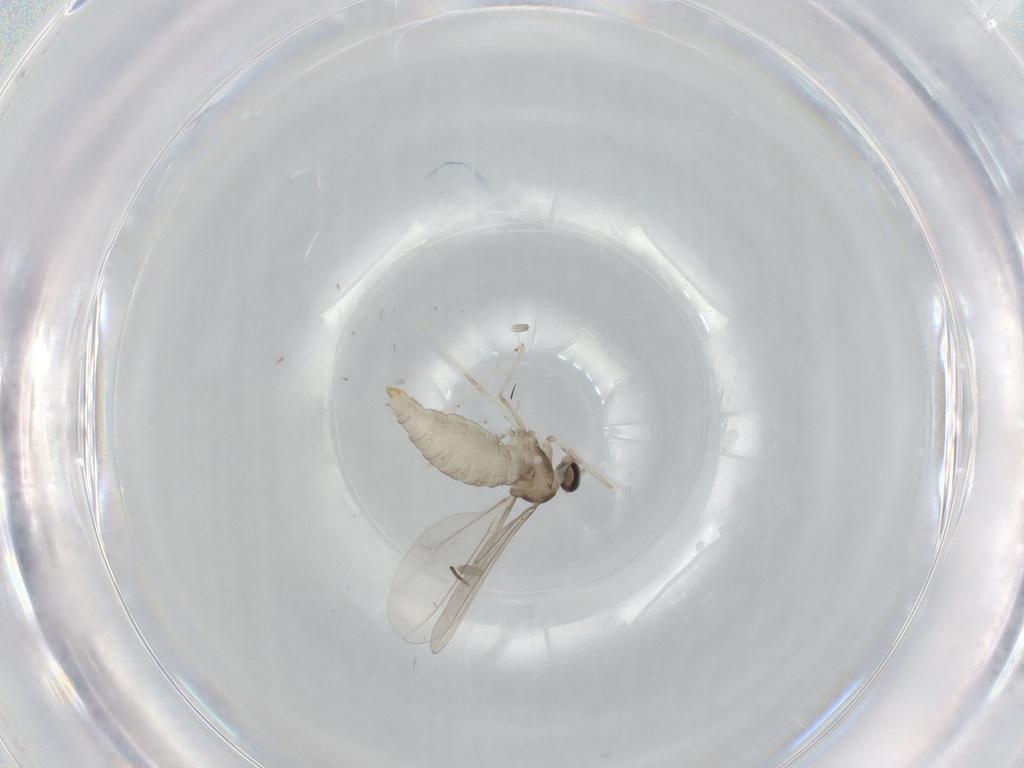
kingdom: Animalia
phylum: Arthropoda
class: Insecta
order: Diptera
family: Cecidomyiidae
